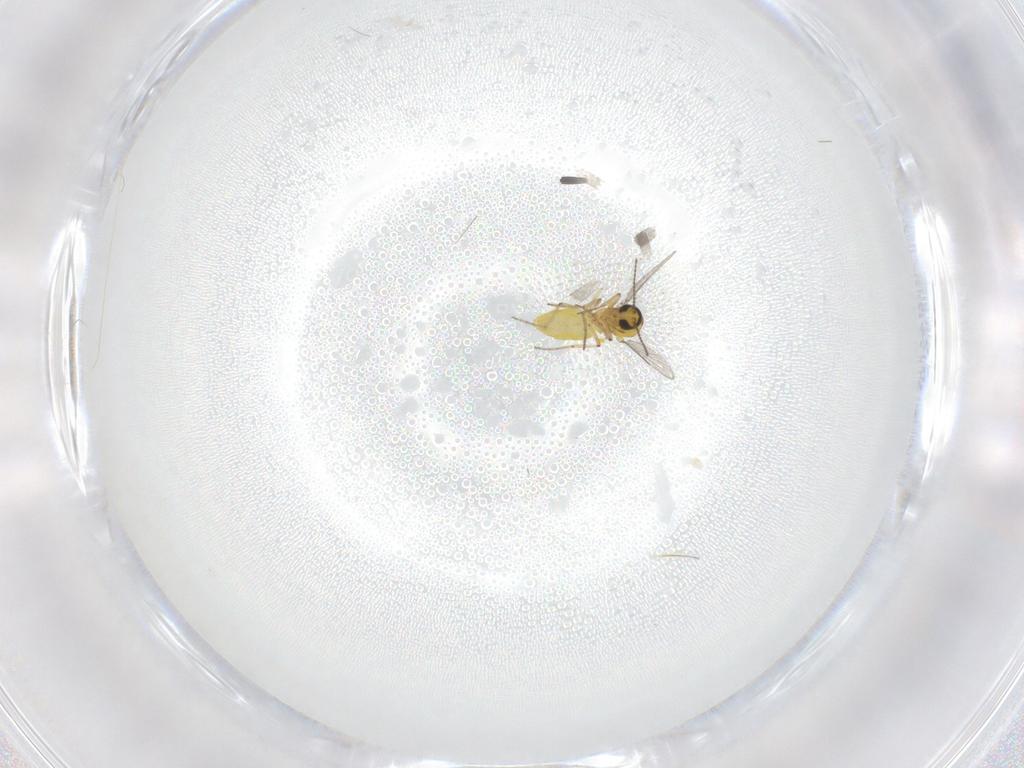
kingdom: Animalia
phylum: Arthropoda
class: Insecta
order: Diptera
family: Ceratopogonidae
